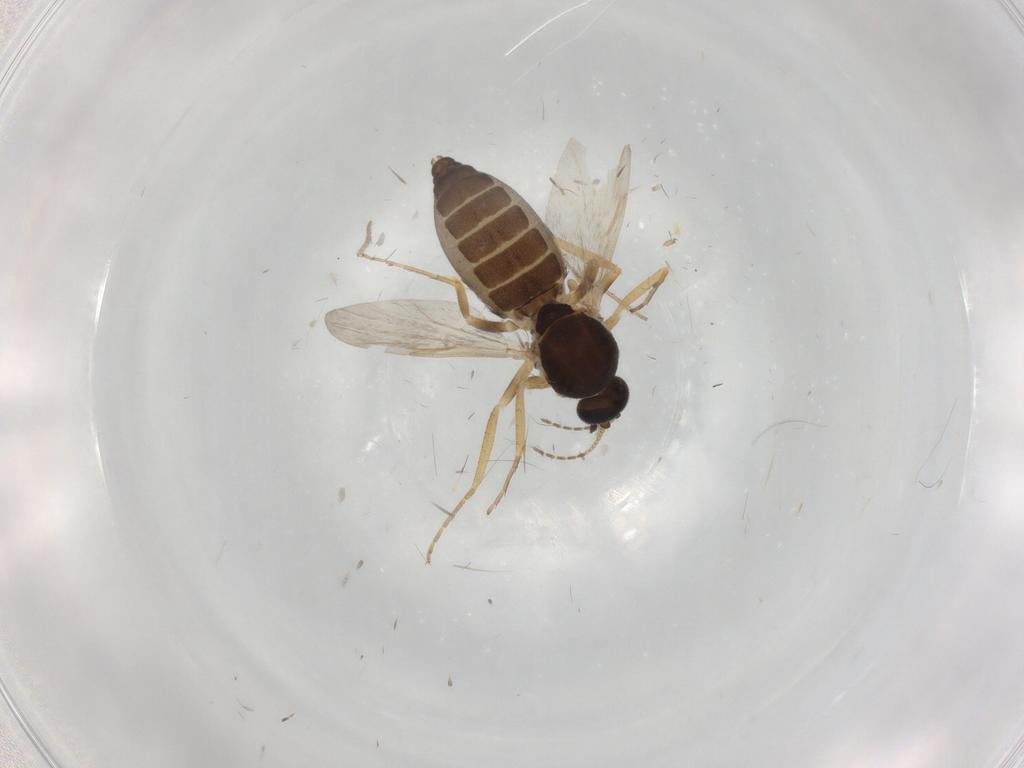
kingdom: Animalia
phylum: Arthropoda
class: Insecta
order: Diptera
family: Ceratopogonidae
